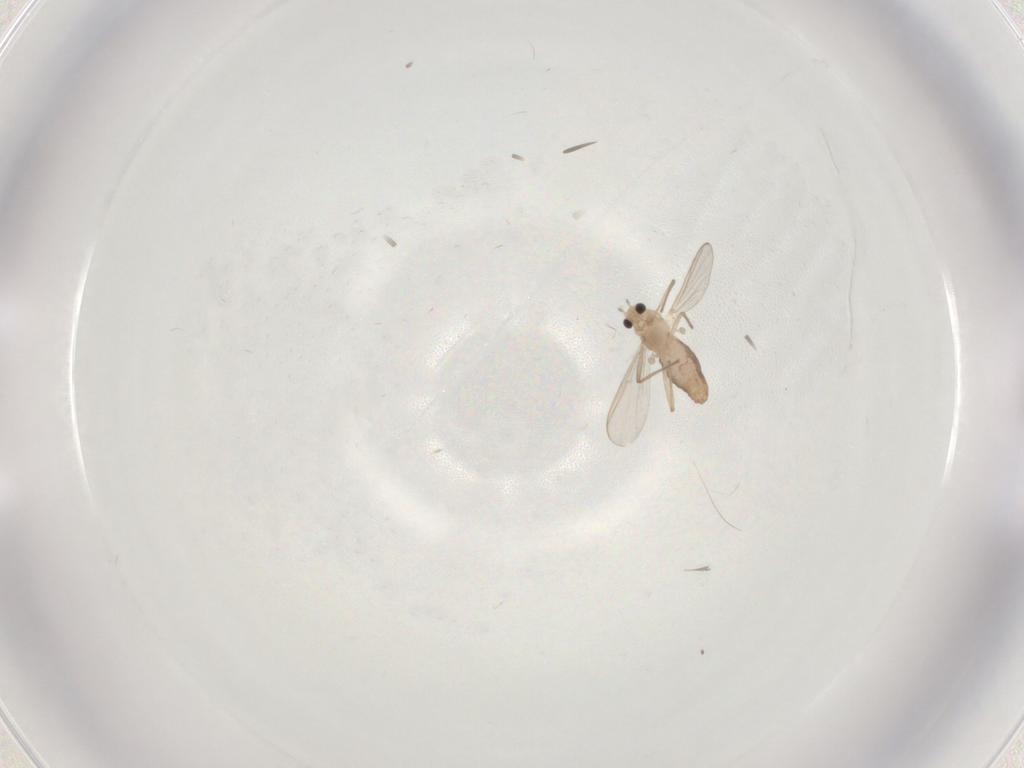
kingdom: Animalia
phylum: Arthropoda
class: Insecta
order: Diptera
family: Chironomidae
